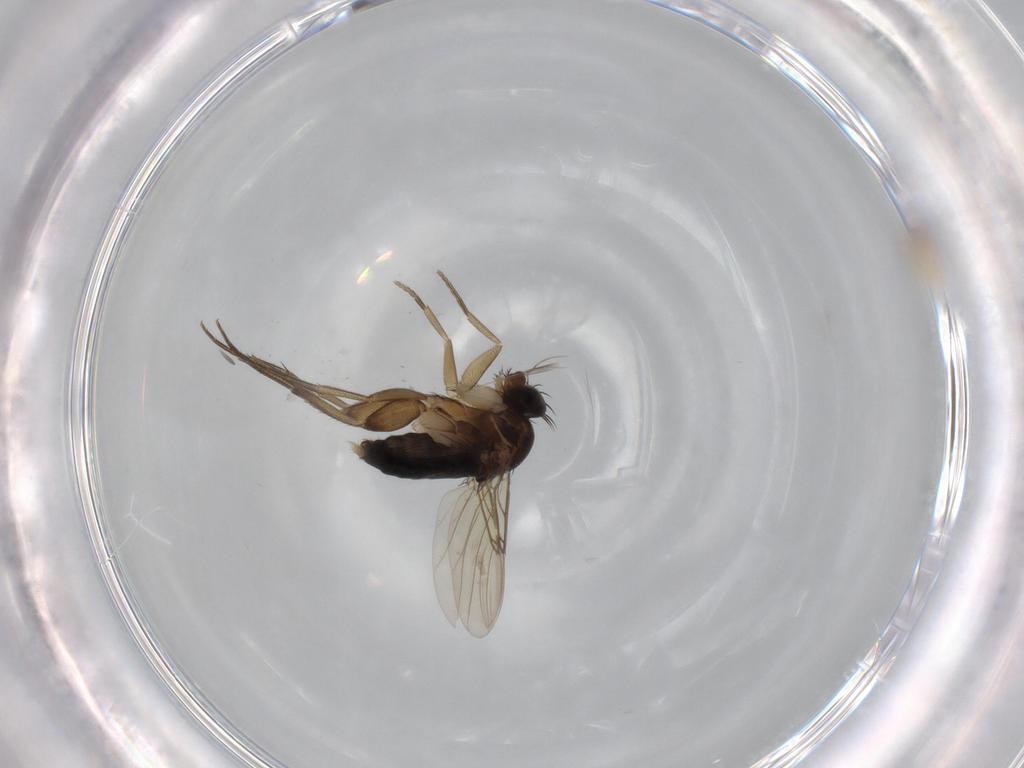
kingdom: Animalia
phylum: Arthropoda
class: Insecta
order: Diptera
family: Phoridae
